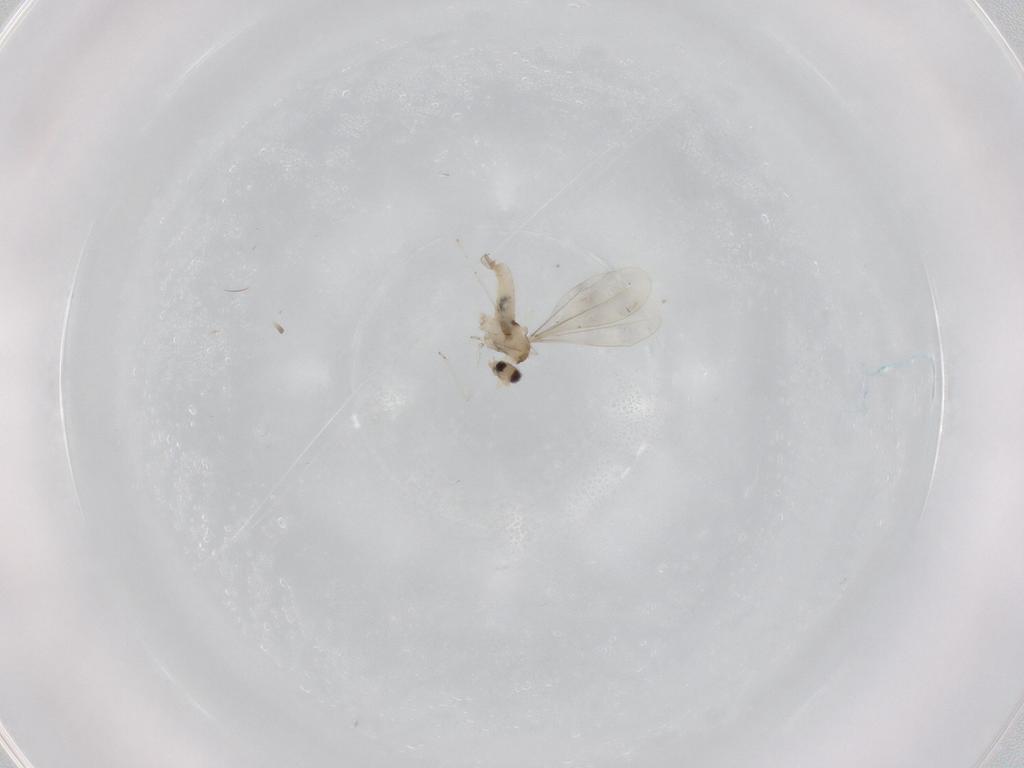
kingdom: Animalia
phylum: Arthropoda
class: Insecta
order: Diptera
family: Cecidomyiidae
